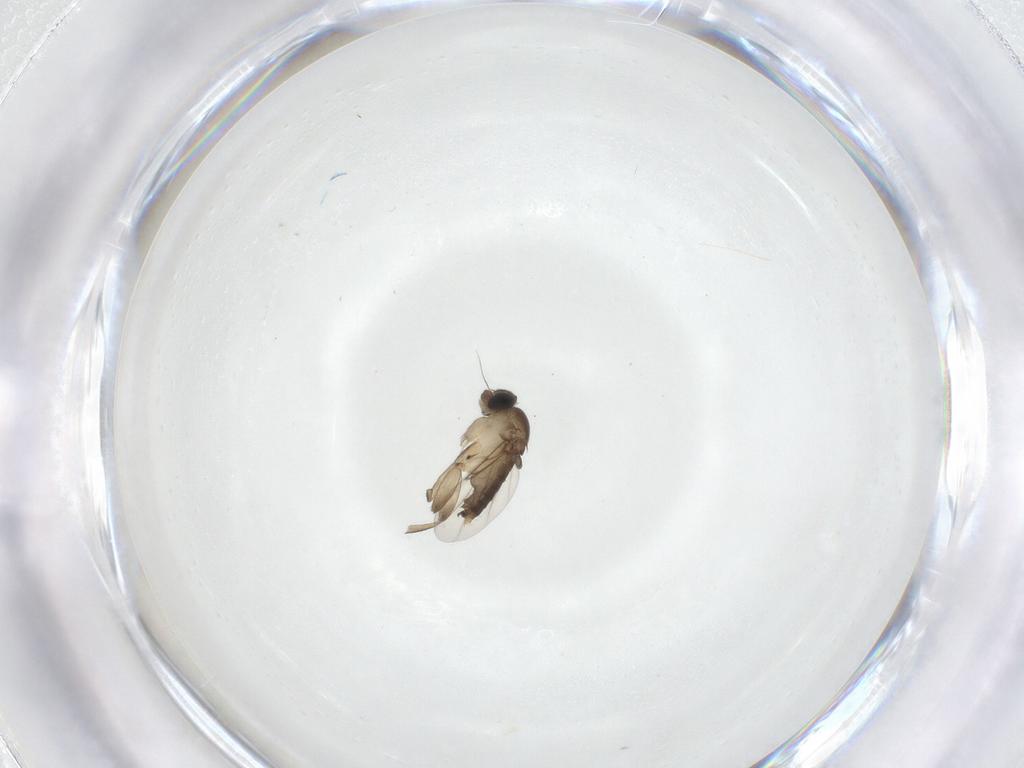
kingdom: Animalia
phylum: Arthropoda
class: Insecta
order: Diptera
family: Phoridae
